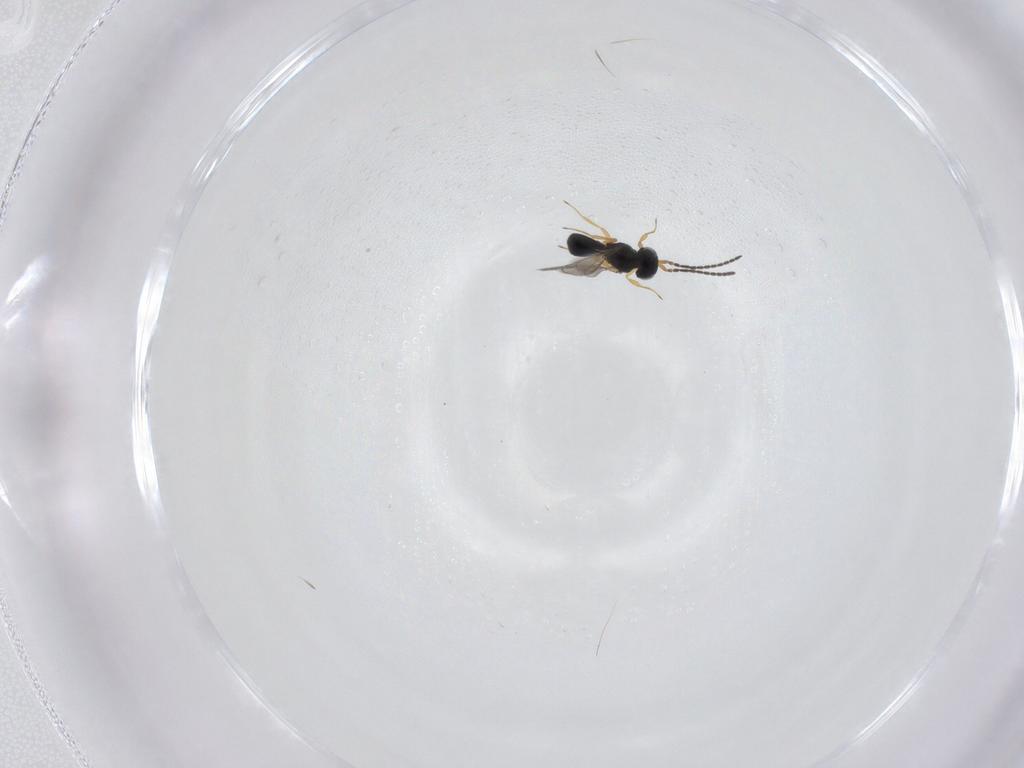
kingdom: Animalia
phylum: Arthropoda
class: Insecta
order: Hymenoptera
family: Scelionidae
